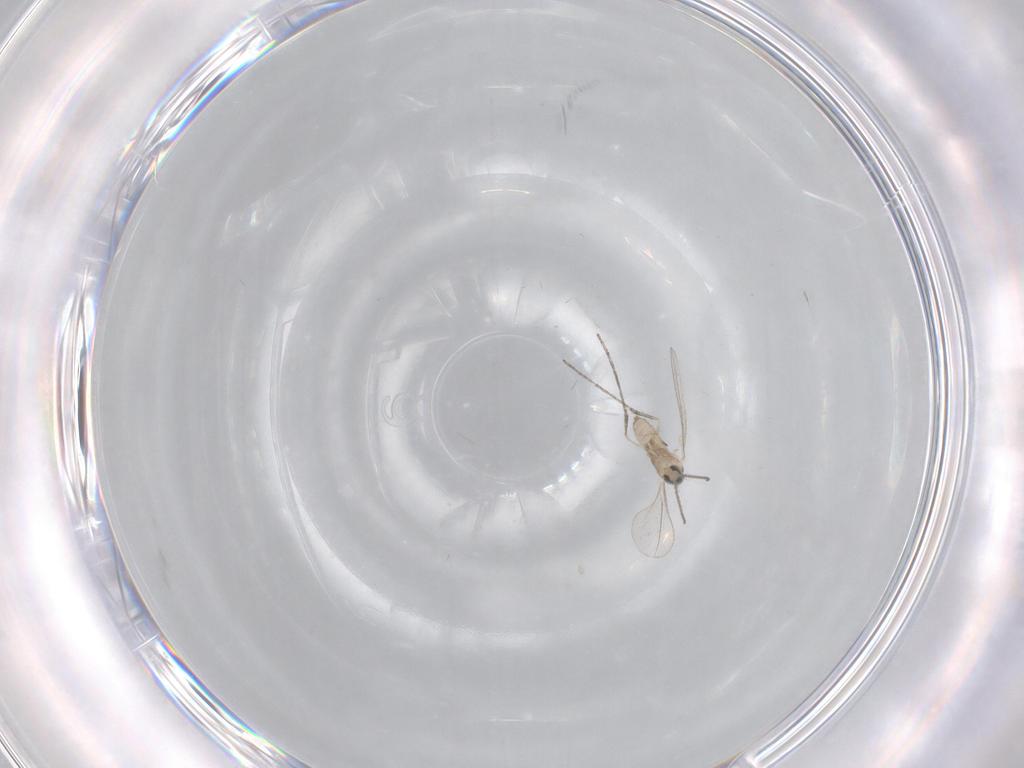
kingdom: Animalia
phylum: Arthropoda
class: Insecta
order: Diptera
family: Cecidomyiidae
